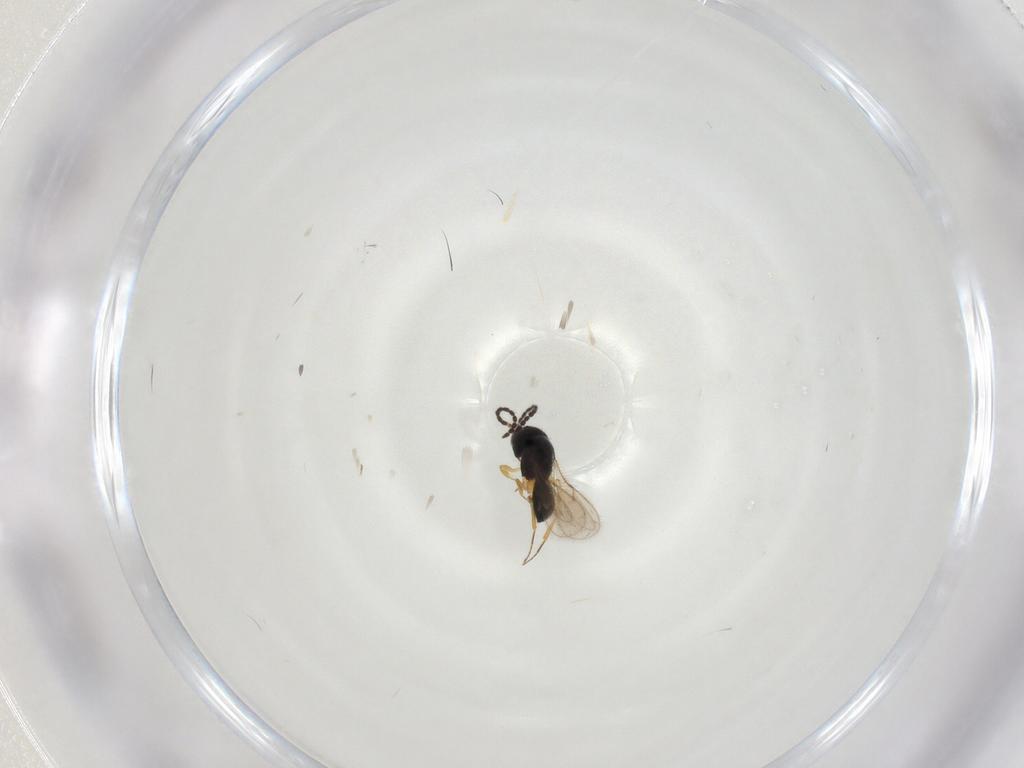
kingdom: Animalia
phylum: Arthropoda
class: Insecta
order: Hymenoptera
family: Scelionidae
